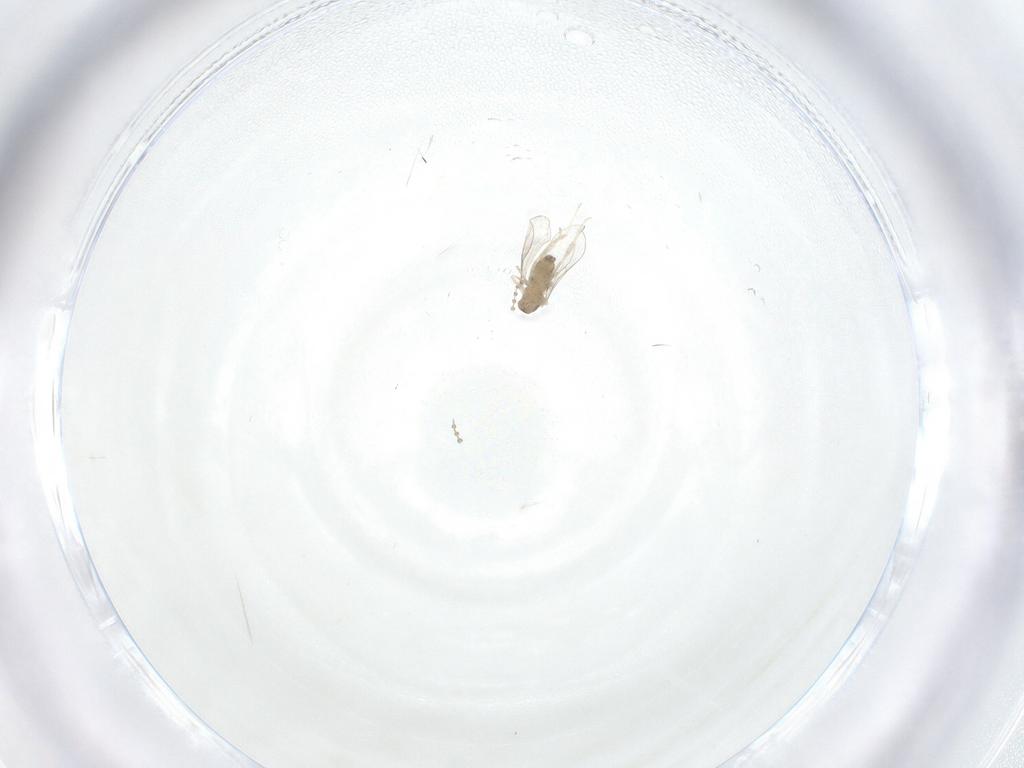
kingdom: Animalia
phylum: Arthropoda
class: Insecta
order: Diptera
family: Cecidomyiidae
